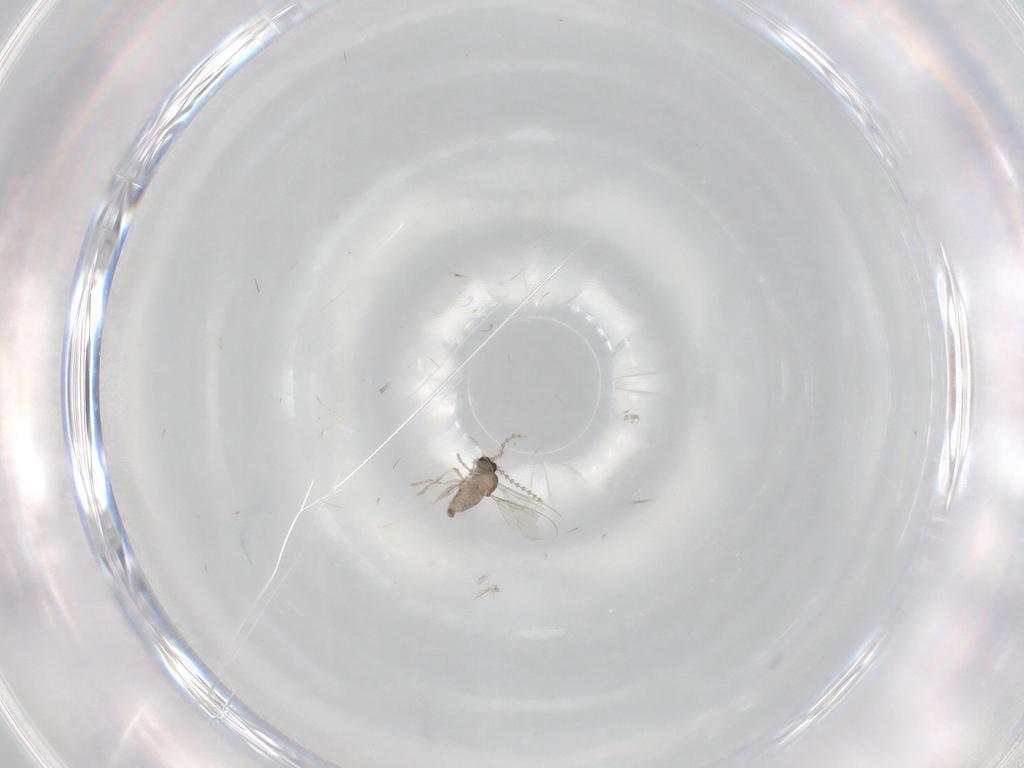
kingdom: Animalia
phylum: Arthropoda
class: Insecta
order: Diptera
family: Cecidomyiidae
